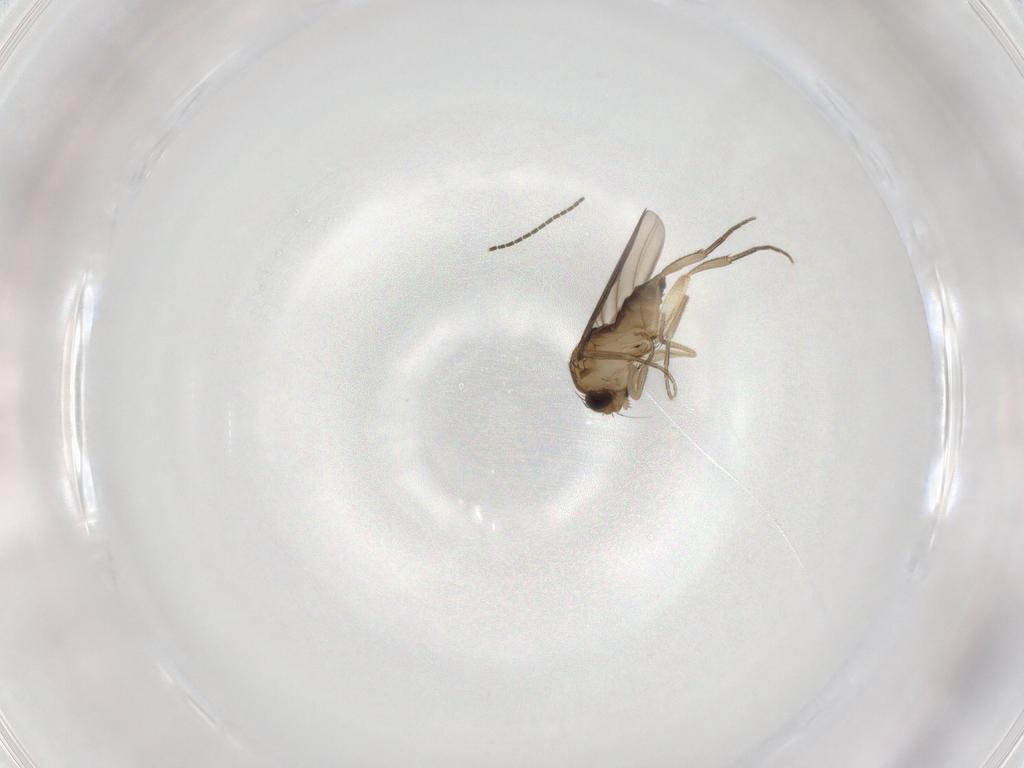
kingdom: Animalia
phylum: Arthropoda
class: Insecta
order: Diptera
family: Phoridae
